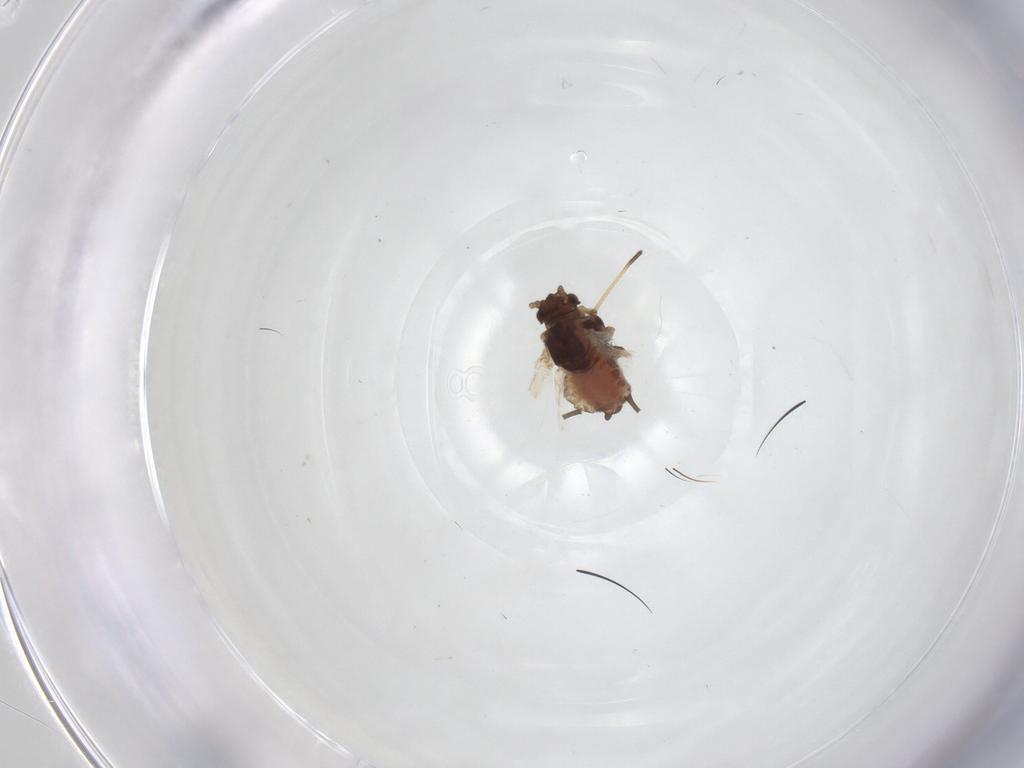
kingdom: Animalia
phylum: Arthropoda
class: Insecta
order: Hemiptera
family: Aphididae
